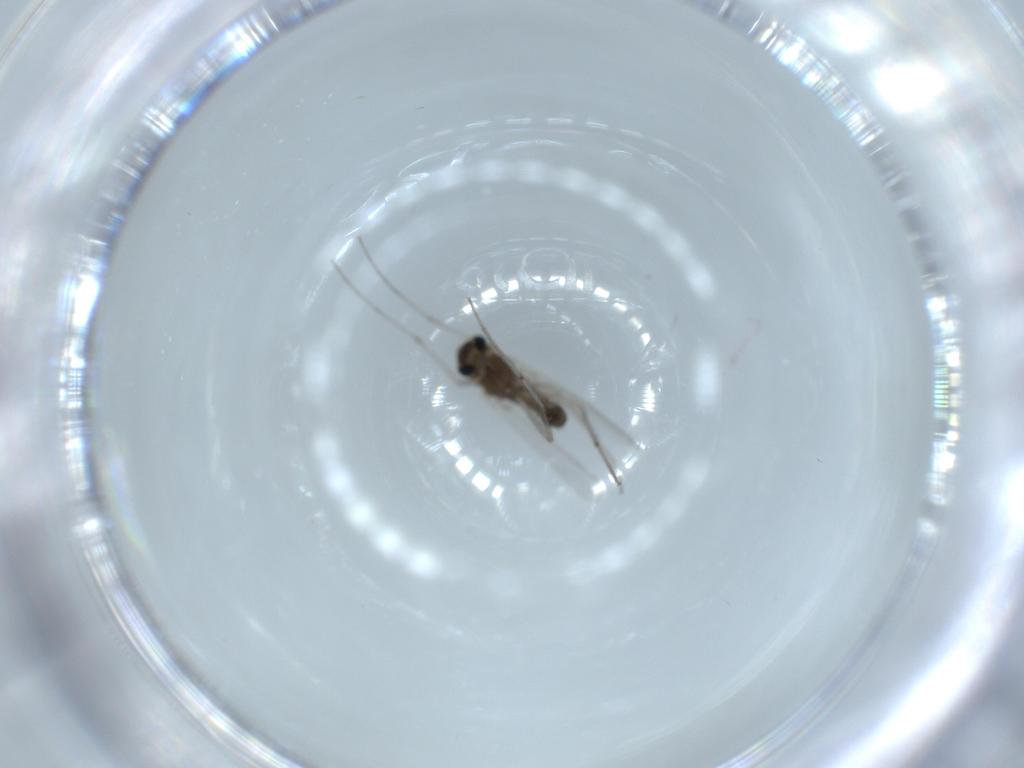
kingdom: Animalia
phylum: Arthropoda
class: Insecta
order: Diptera
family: Chironomidae
